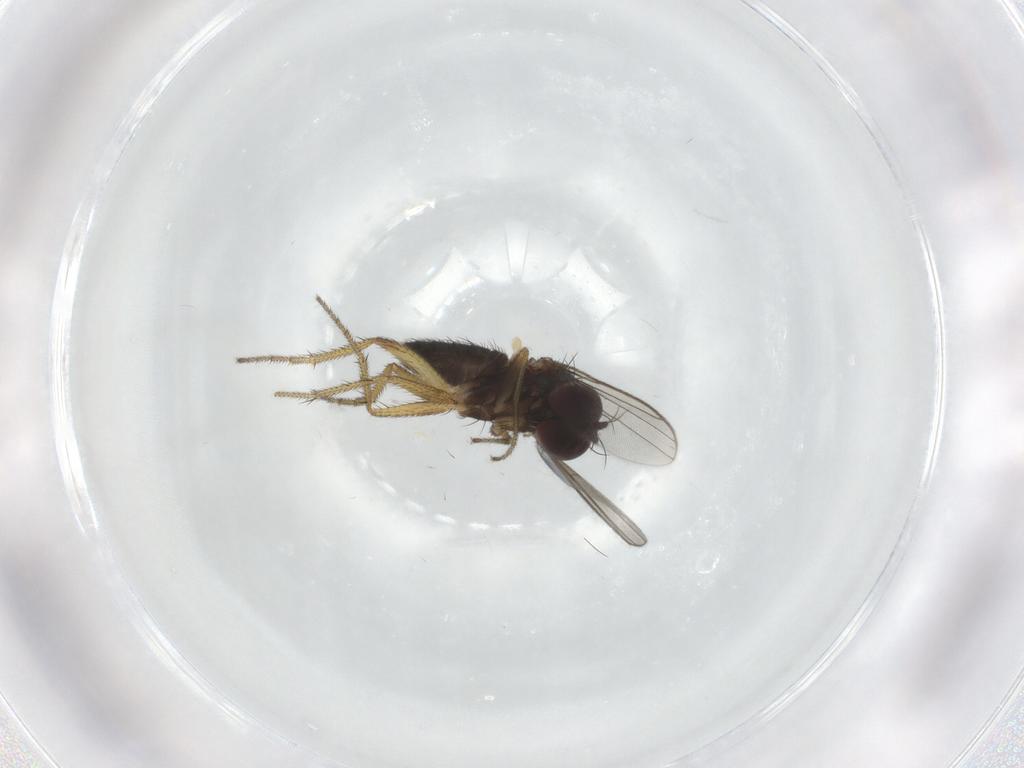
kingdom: Animalia
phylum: Arthropoda
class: Insecta
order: Diptera
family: Dolichopodidae
